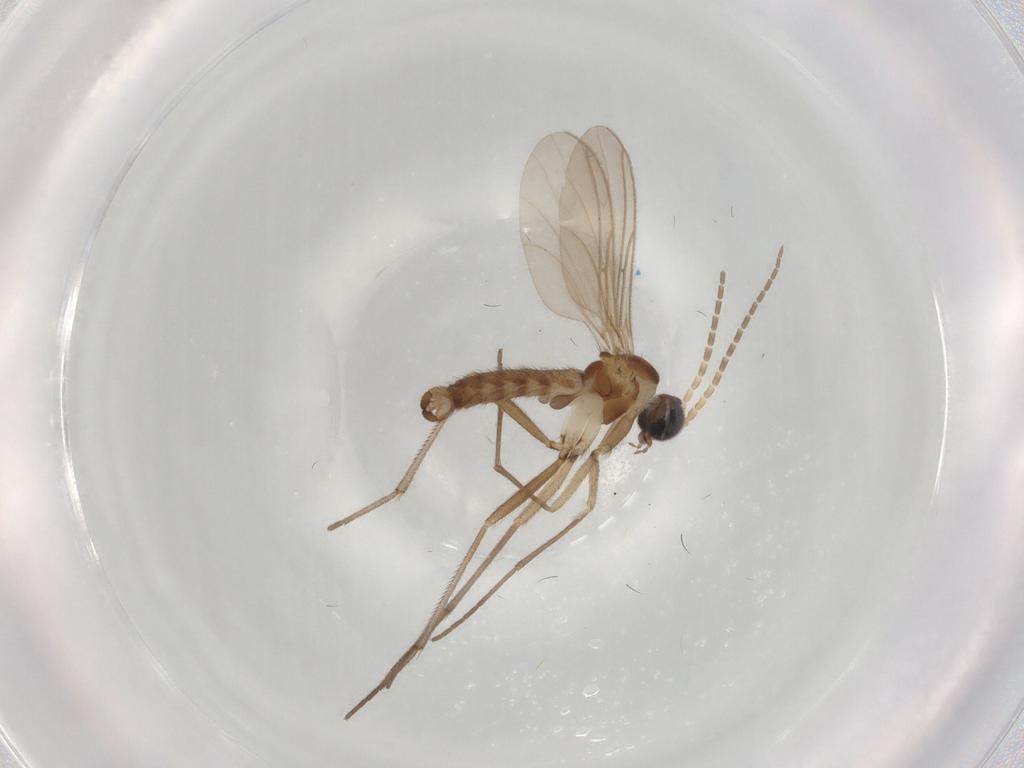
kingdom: Animalia
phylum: Arthropoda
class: Insecta
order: Diptera
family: Sciaridae
